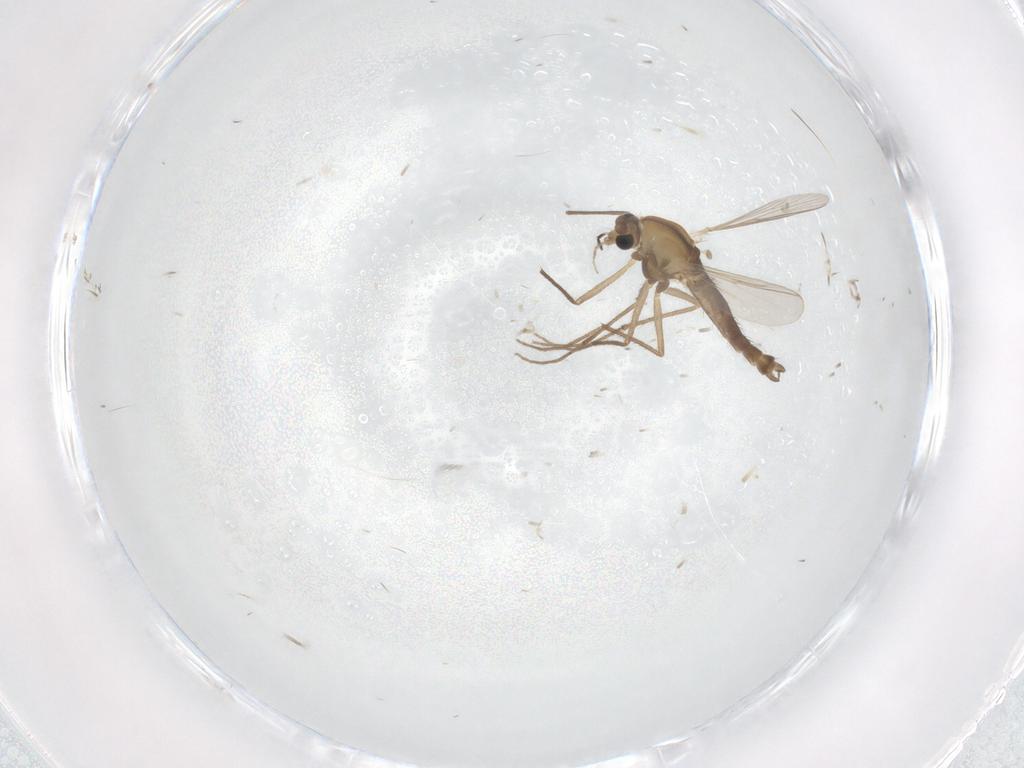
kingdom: Animalia
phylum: Arthropoda
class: Insecta
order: Diptera
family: Chironomidae
